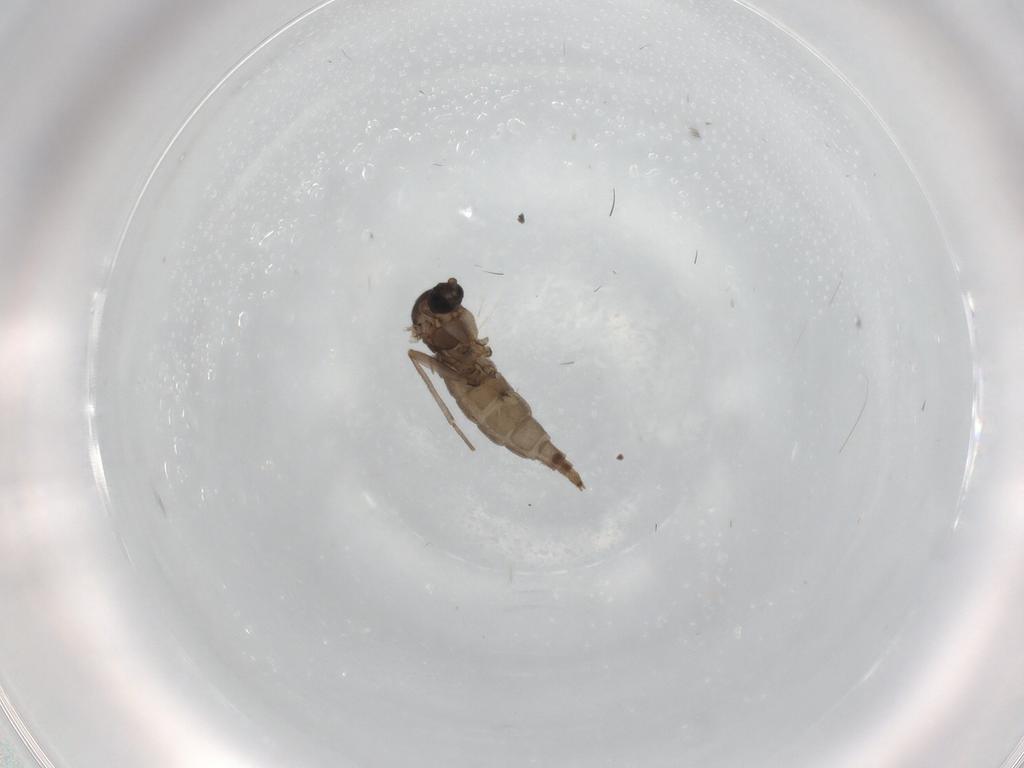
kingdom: Animalia
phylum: Arthropoda
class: Insecta
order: Diptera
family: Sciaridae
